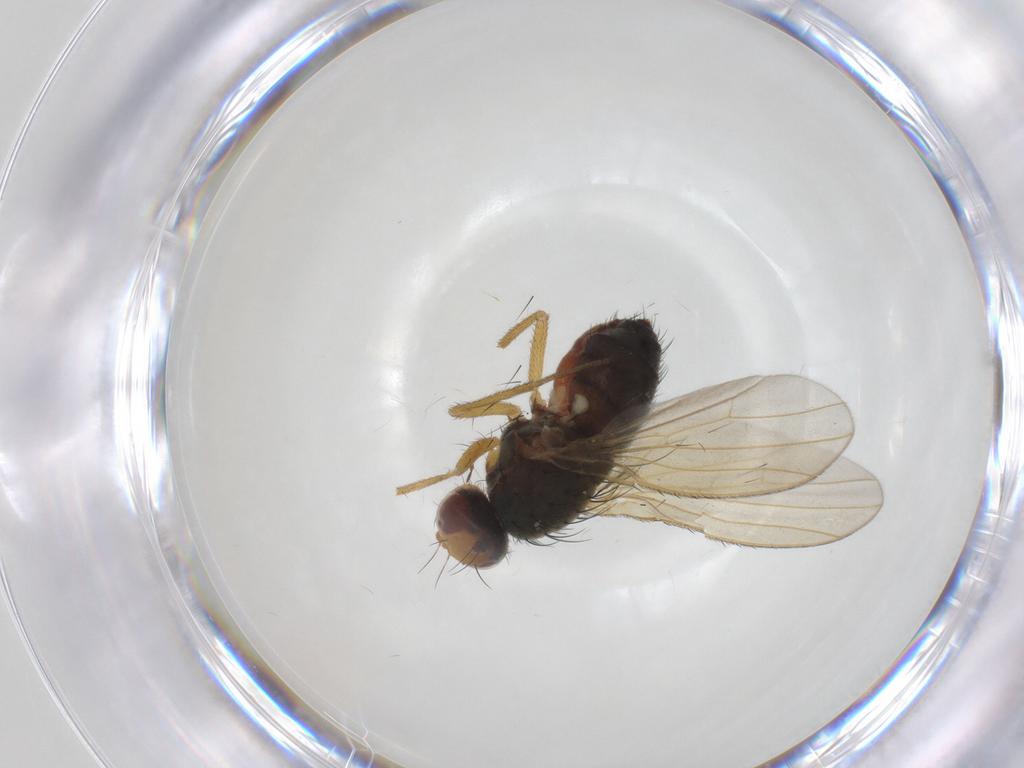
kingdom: Animalia
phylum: Arthropoda
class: Insecta
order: Diptera
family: Heleomyzidae
